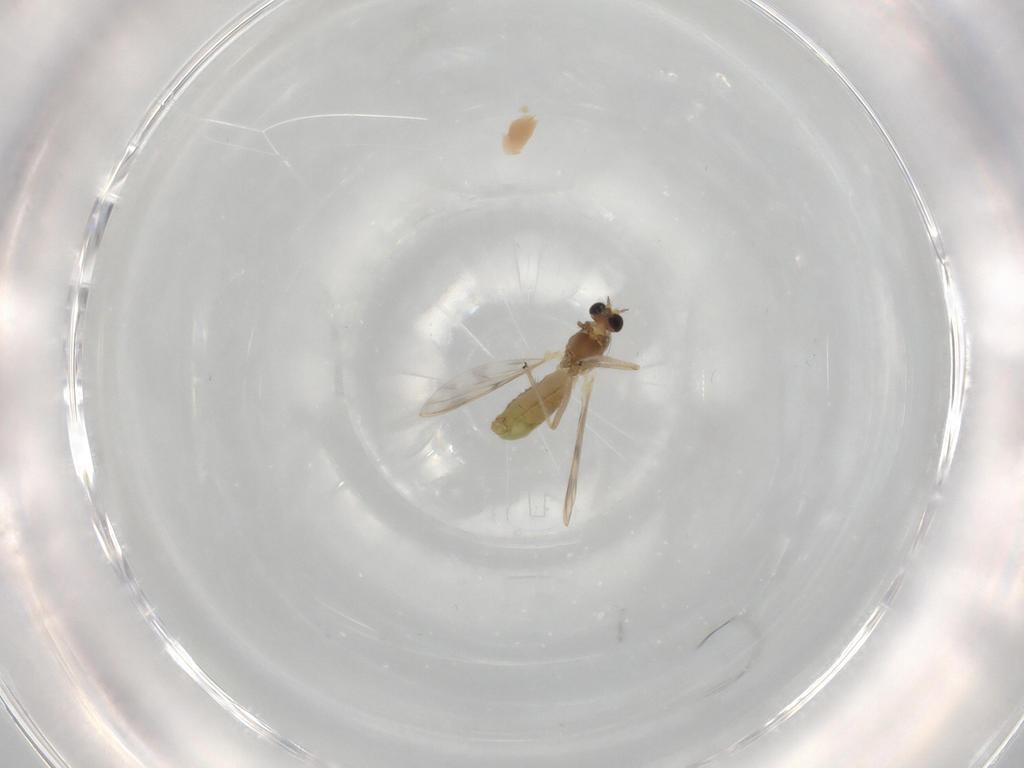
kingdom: Animalia
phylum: Arthropoda
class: Insecta
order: Diptera
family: Chironomidae
